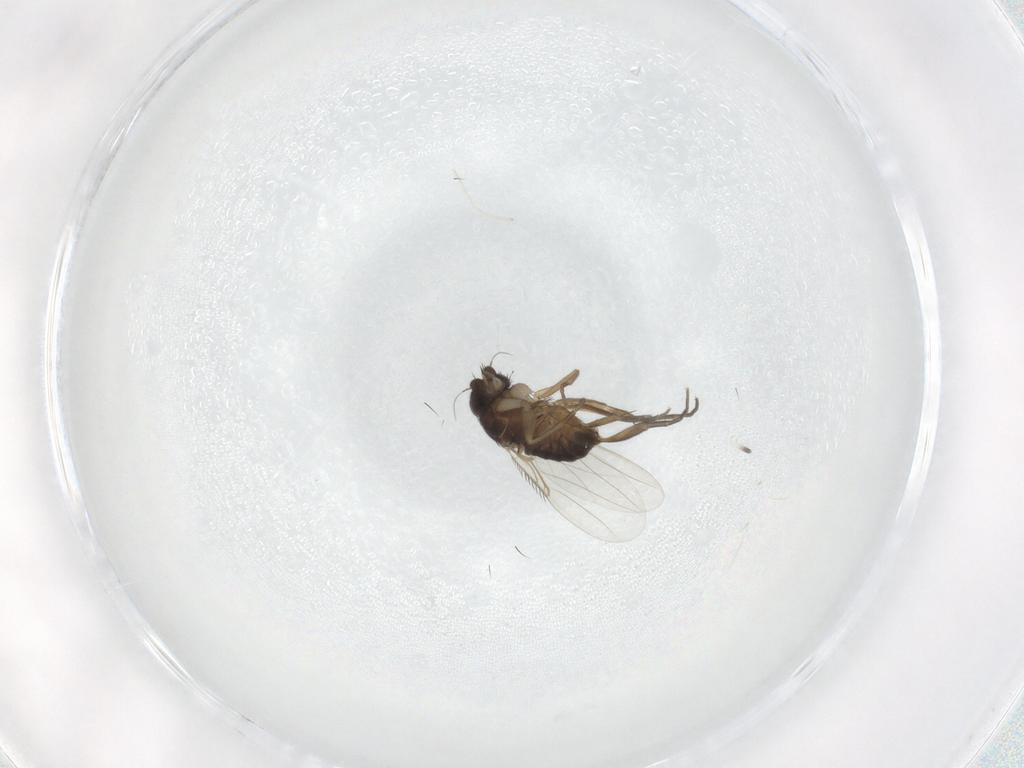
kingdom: Animalia
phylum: Arthropoda
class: Insecta
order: Diptera
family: Phoridae
